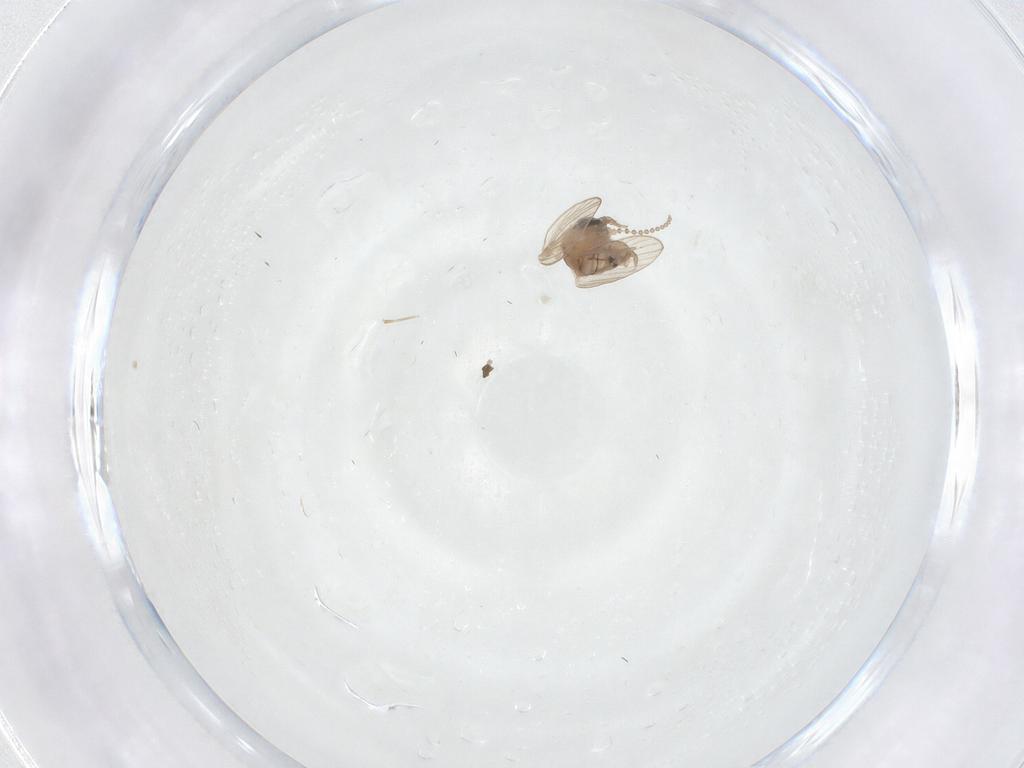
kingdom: Animalia
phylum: Arthropoda
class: Insecta
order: Diptera
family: Psychodidae
